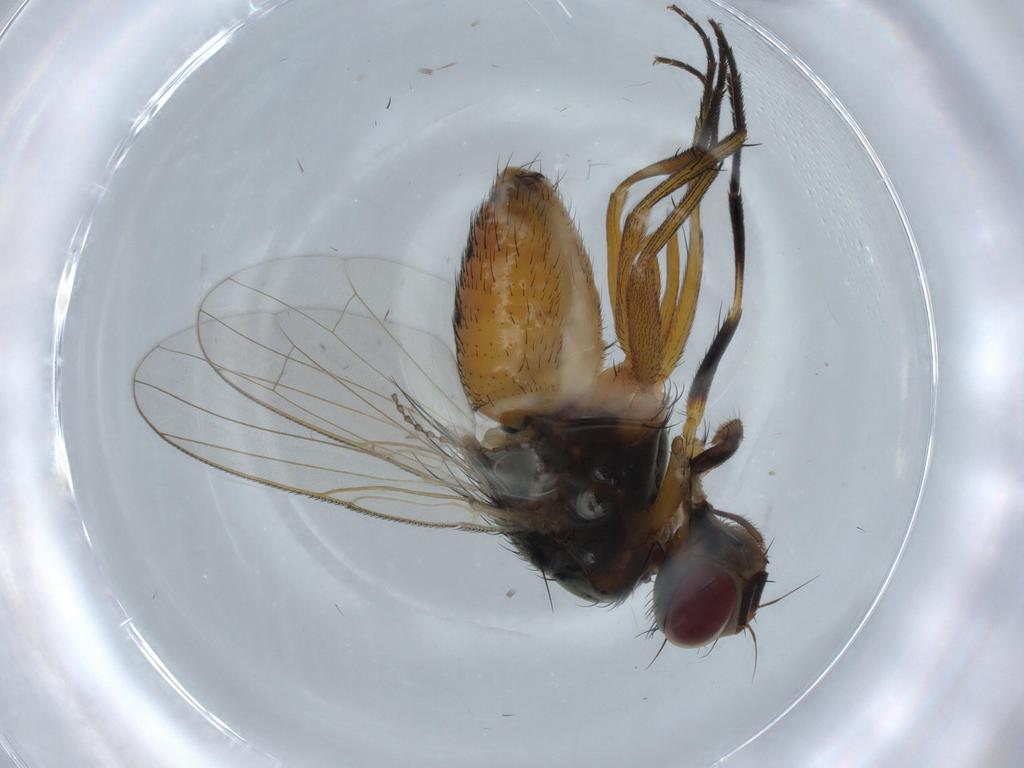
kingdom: Animalia
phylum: Arthropoda
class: Insecta
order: Diptera
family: Muscidae
